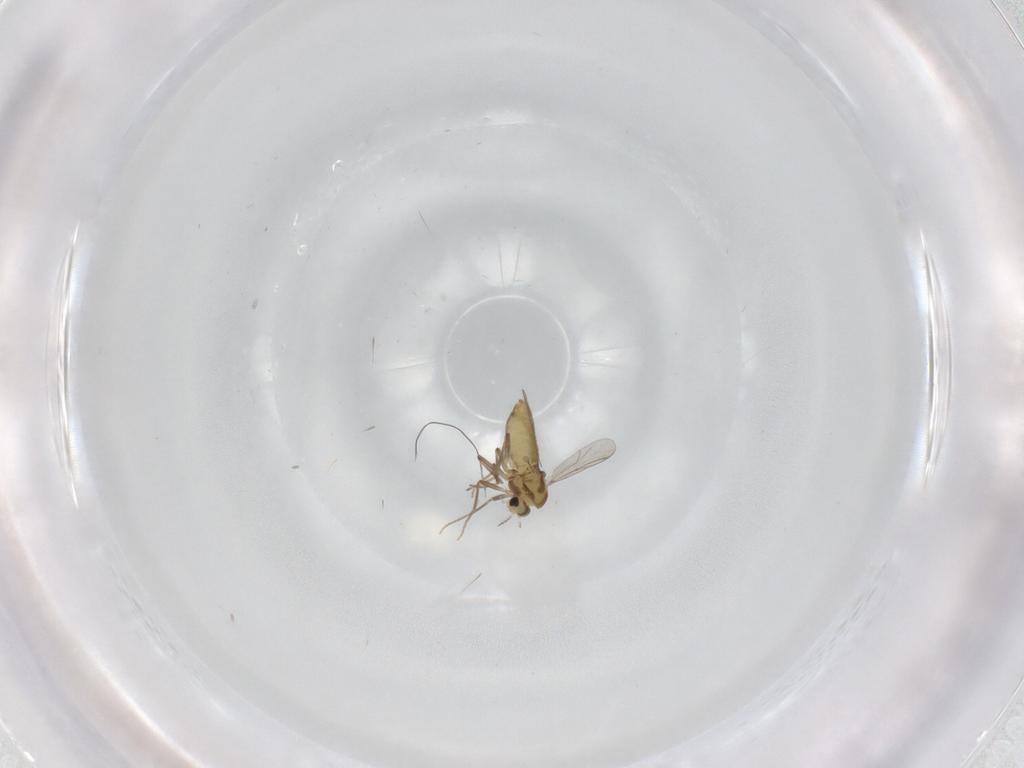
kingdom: Animalia
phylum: Arthropoda
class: Insecta
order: Diptera
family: Chironomidae
